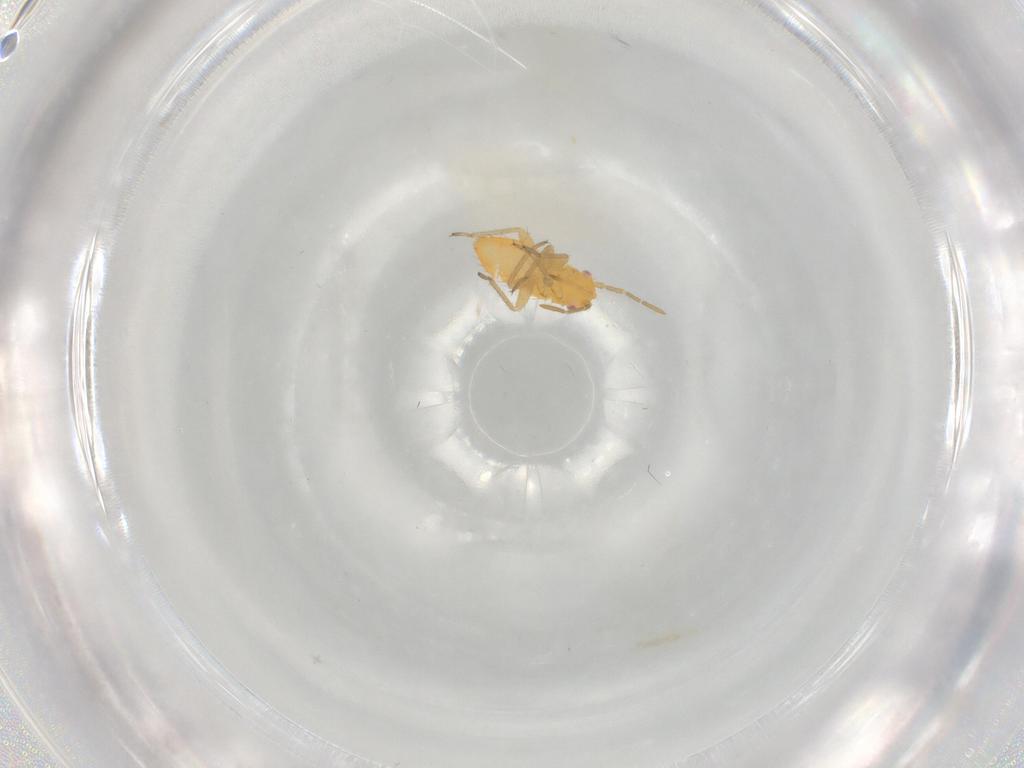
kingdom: Animalia
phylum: Arthropoda
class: Insecta
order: Hemiptera
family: Miridae
